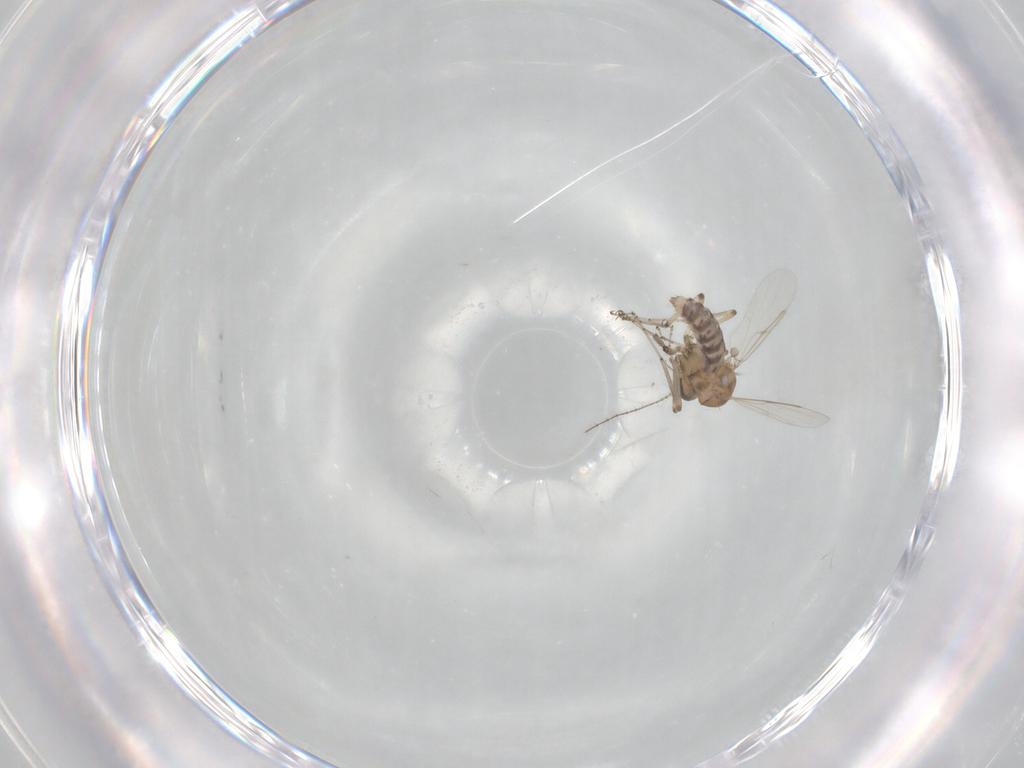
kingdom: Animalia
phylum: Arthropoda
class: Insecta
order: Diptera
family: Ceratopogonidae
